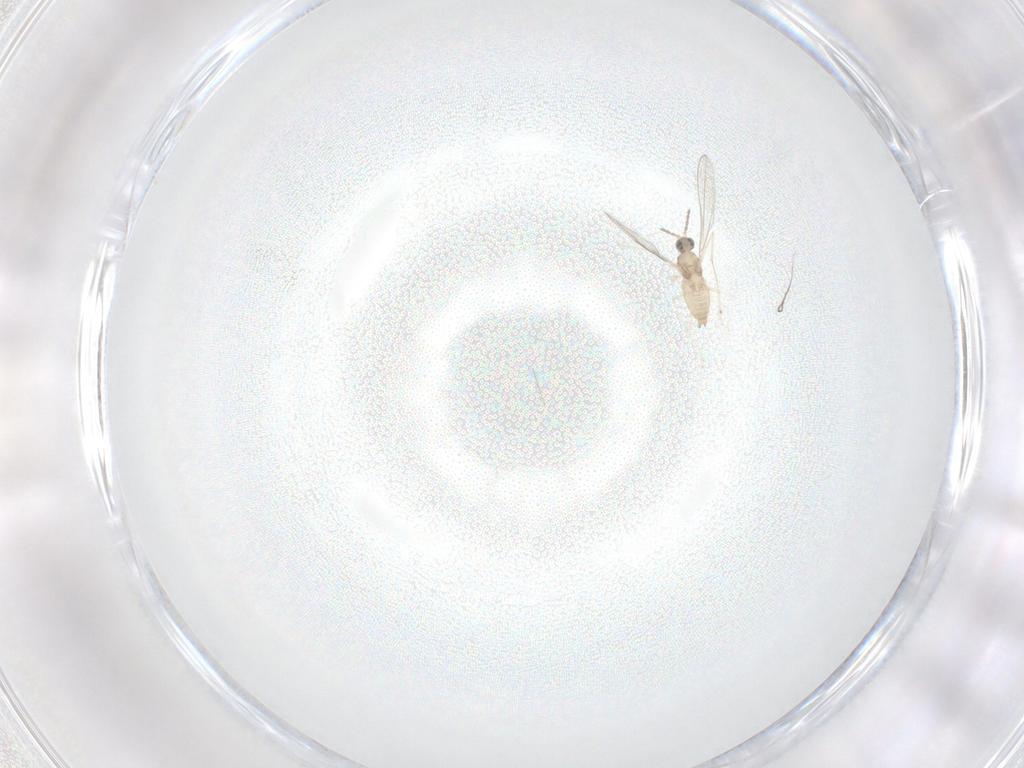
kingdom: Animalia
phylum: Arthropoda
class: Insecta
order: Diptera
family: Cecidomyiidae
